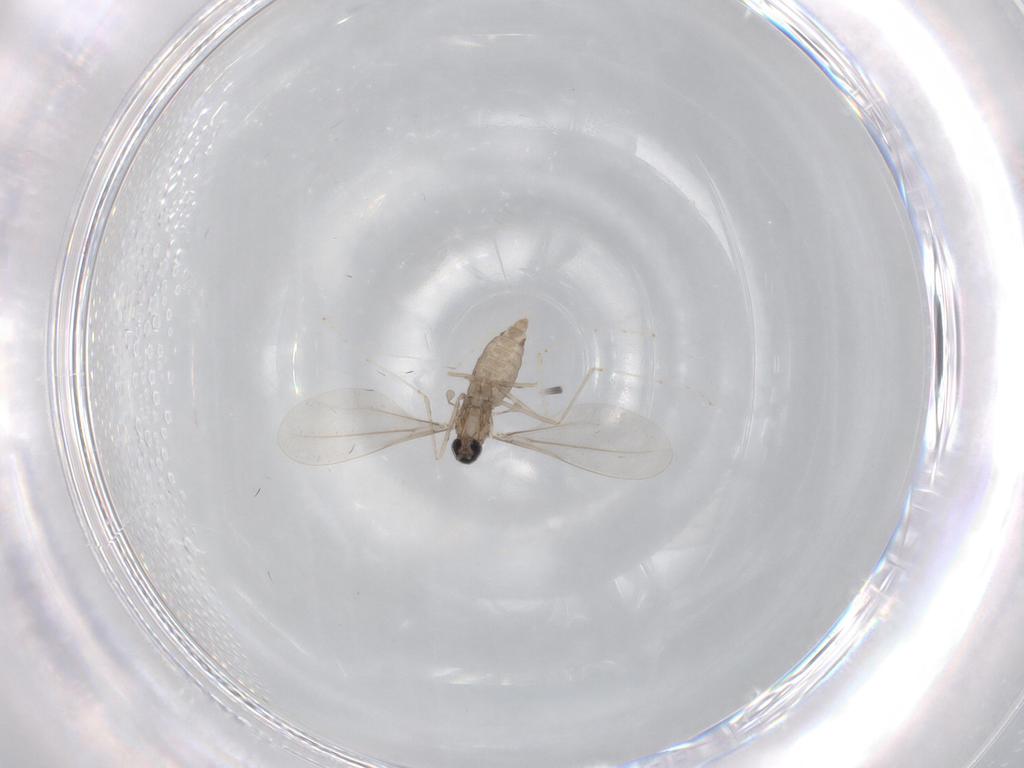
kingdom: Animalia
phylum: Arthropoda
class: Insecta
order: Diptera
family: Cecidomyiidae
